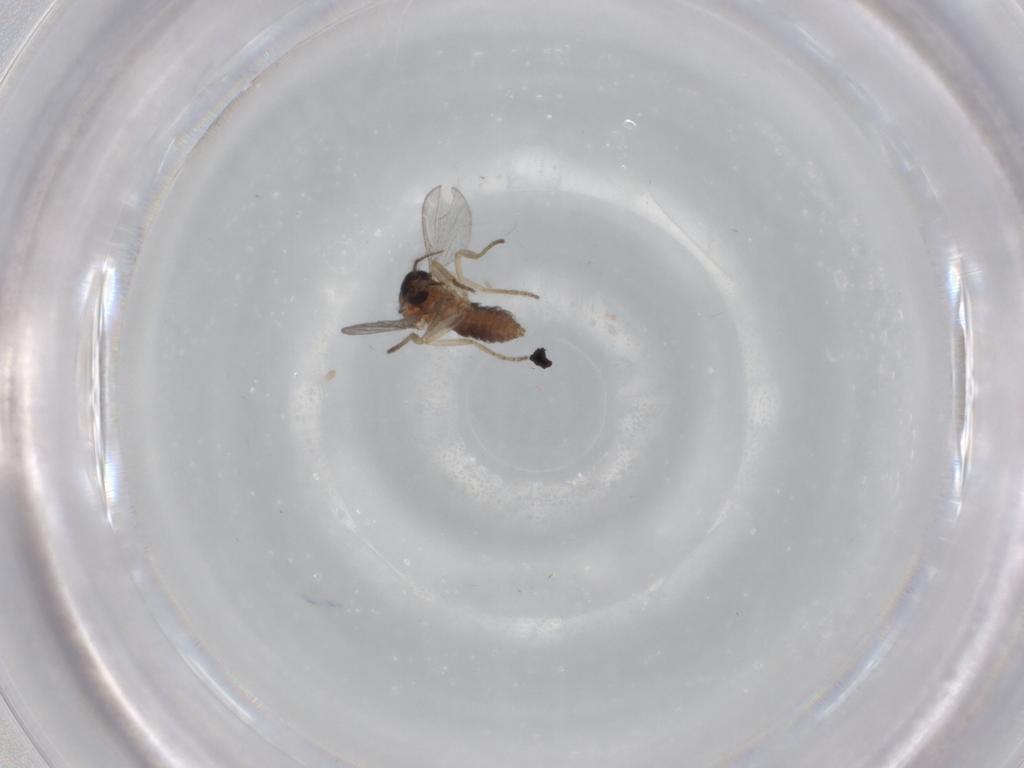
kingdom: Animalia
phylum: Arthropoda
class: Insecta
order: Diptera
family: Ceratopogonidae
